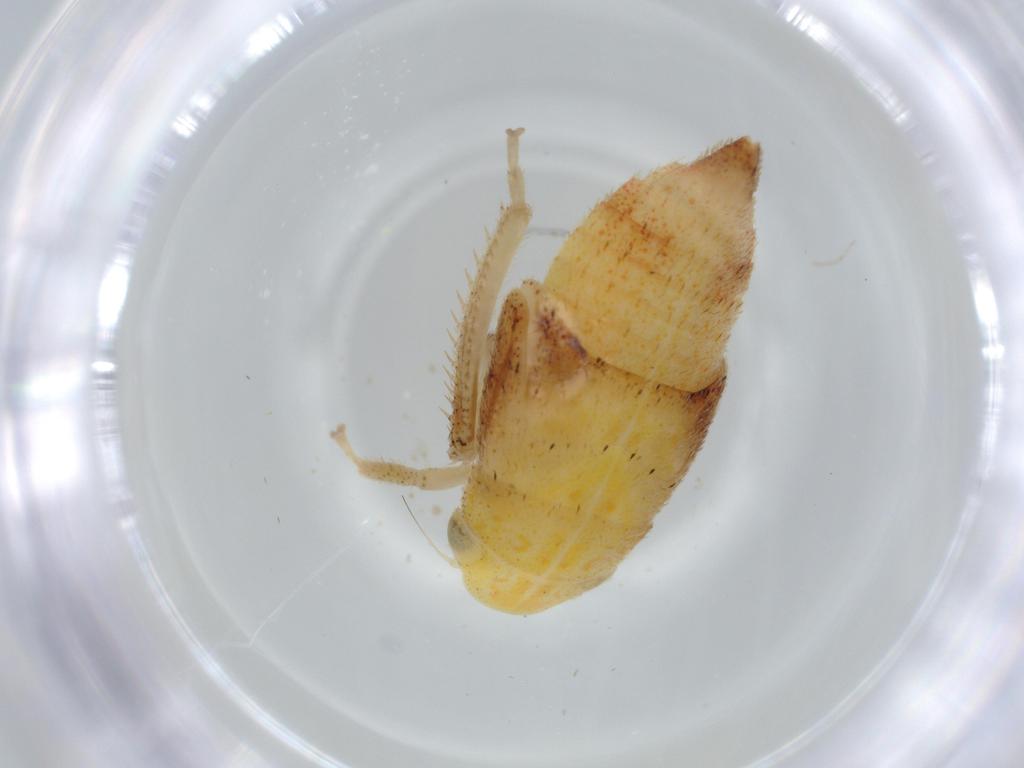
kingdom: Animalia
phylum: Arthropoda
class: Insecta
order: Hemiptera
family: Cicadellidae
